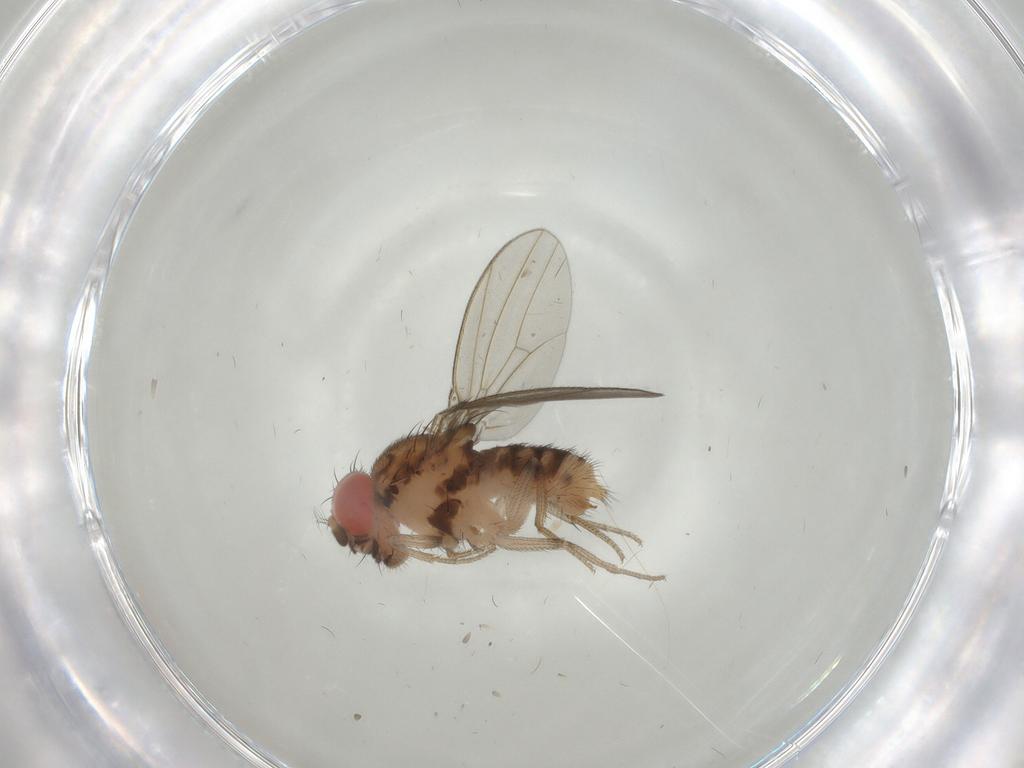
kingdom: Animalia
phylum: Arthropoda
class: Insecta
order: Diptera
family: Drosophilidae
